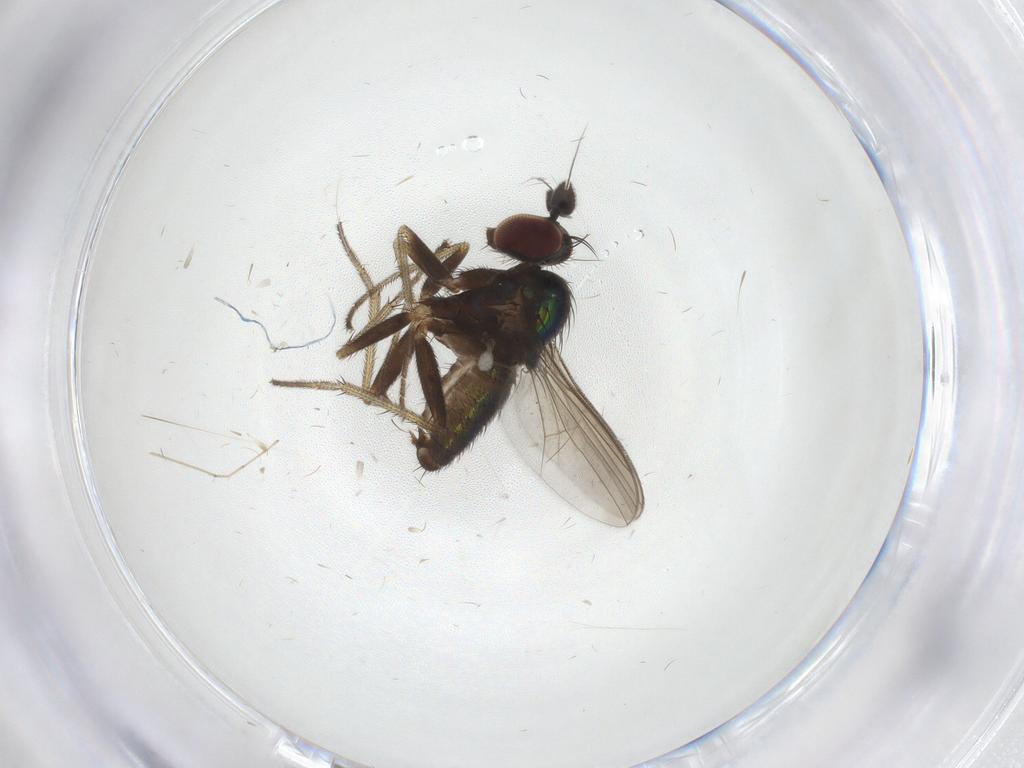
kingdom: Animalia
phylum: Arthropoda
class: Insecta
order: Diptera
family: Dolichopodidae
